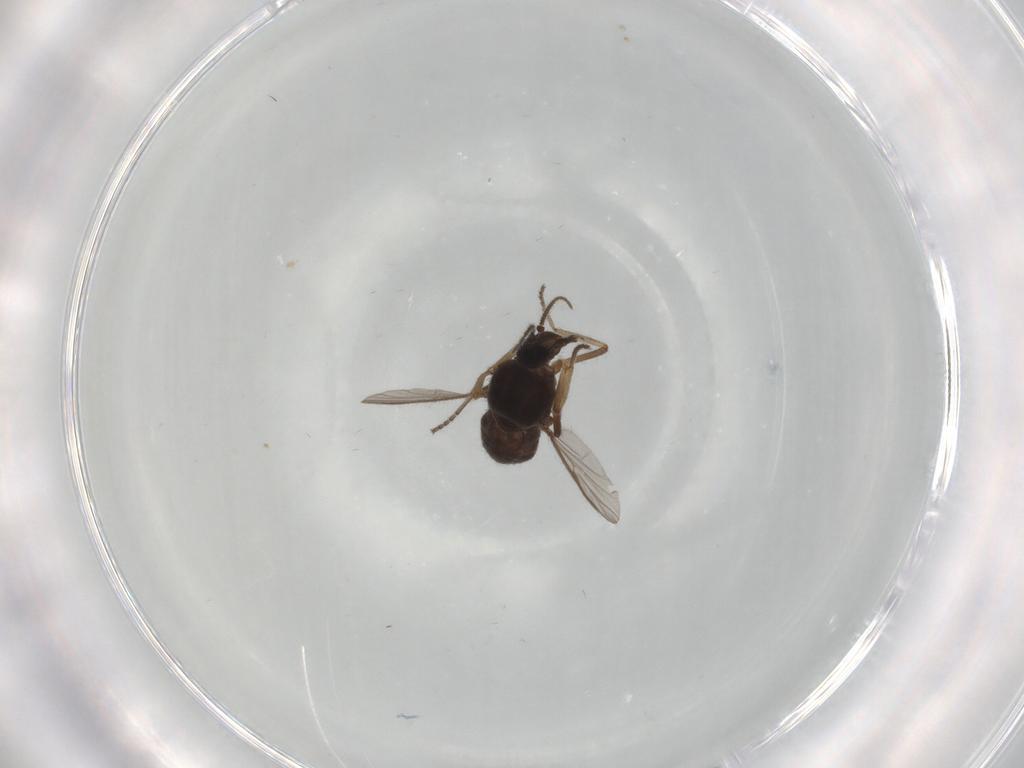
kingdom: Animalia
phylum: Arthropoda
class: Insecta
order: Diptera
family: Ceratopogonidae
